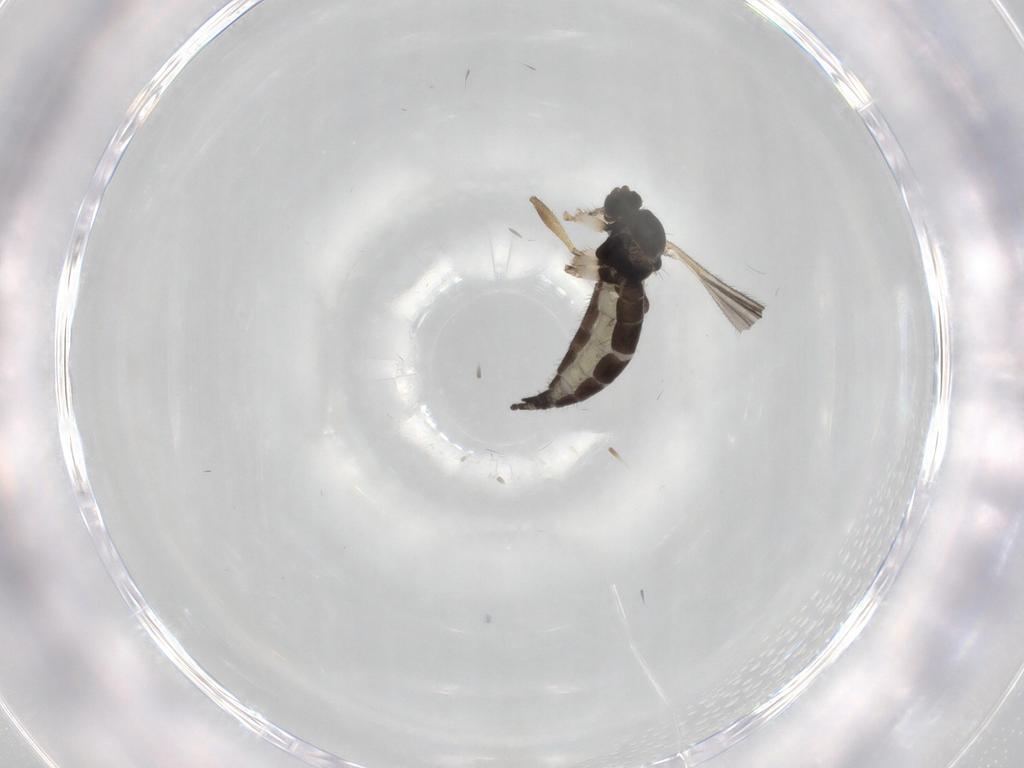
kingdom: Animalia
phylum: Arthropoda
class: Insecta
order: Diptera
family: Sciaridae
